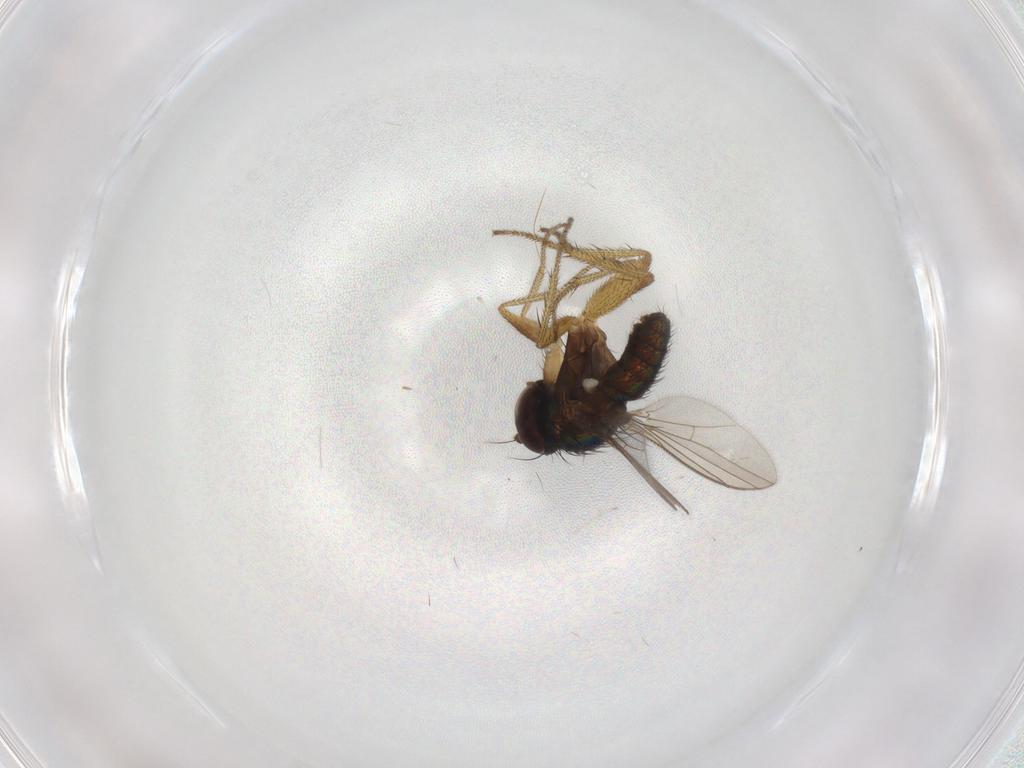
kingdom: Animalia
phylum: Arthropoda
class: Insecta
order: Diptera
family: Dolichopodidae
